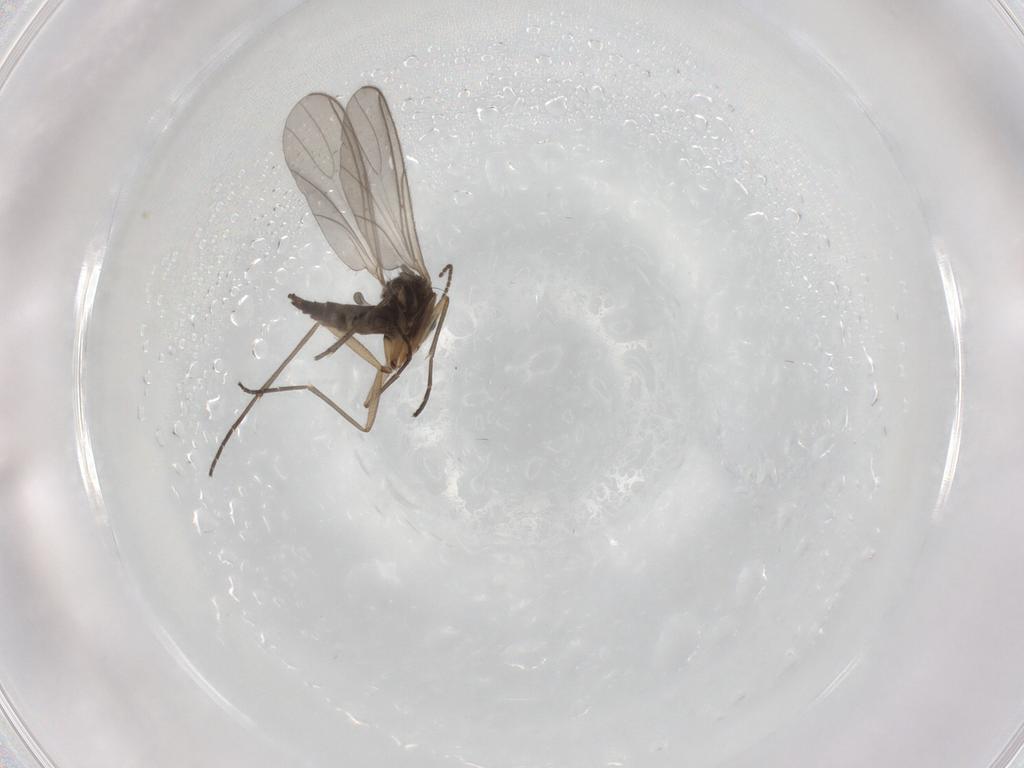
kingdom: Animalia
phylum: Arthropoda
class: Insecta
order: Diptera
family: Sciaridae
